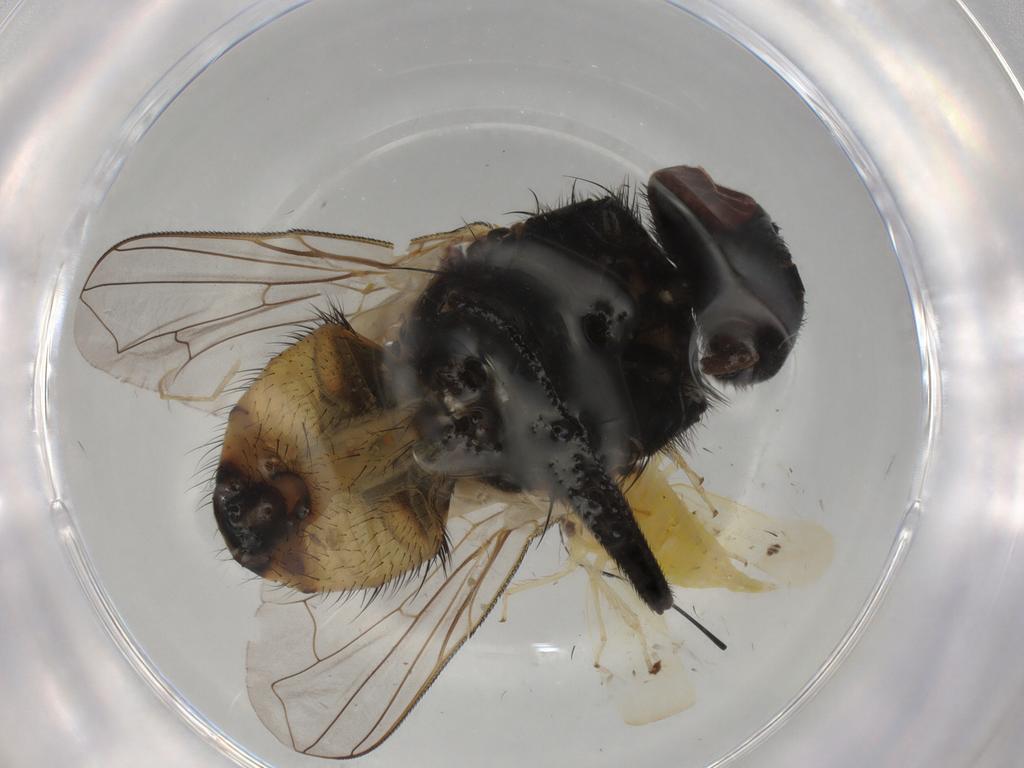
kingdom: Animalia
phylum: Arthropoda
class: Insecta
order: Diptera
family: Muscidae
